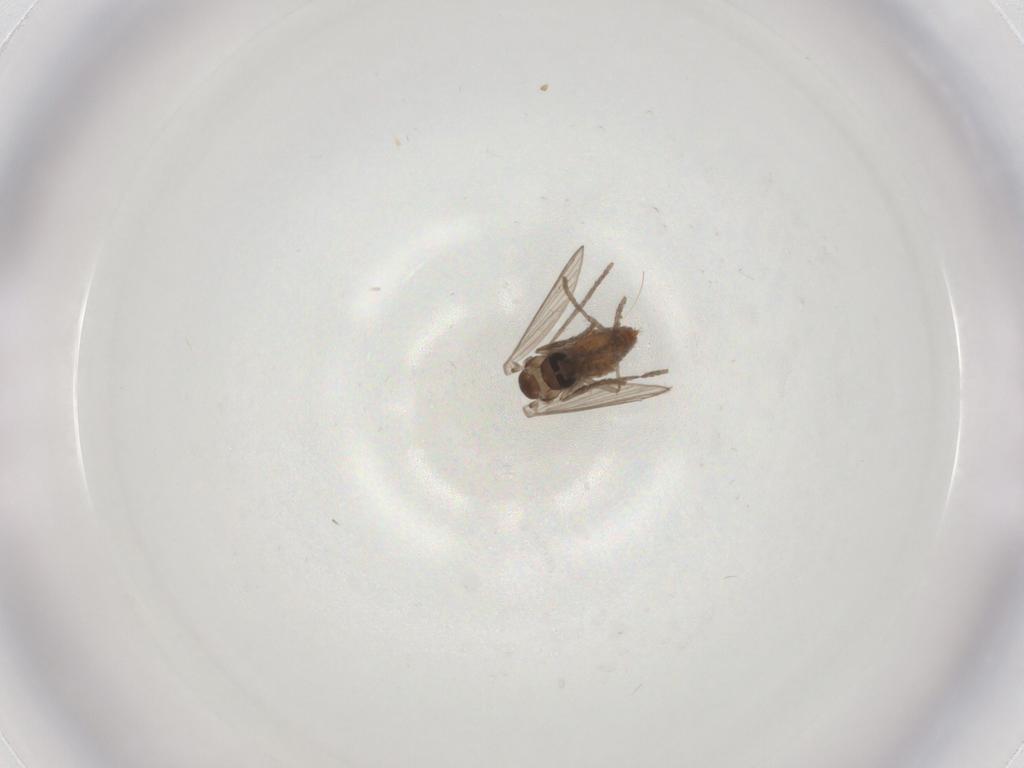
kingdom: Animalia
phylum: Arthropoda
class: Insecta
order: Diptera
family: Psychodidae
